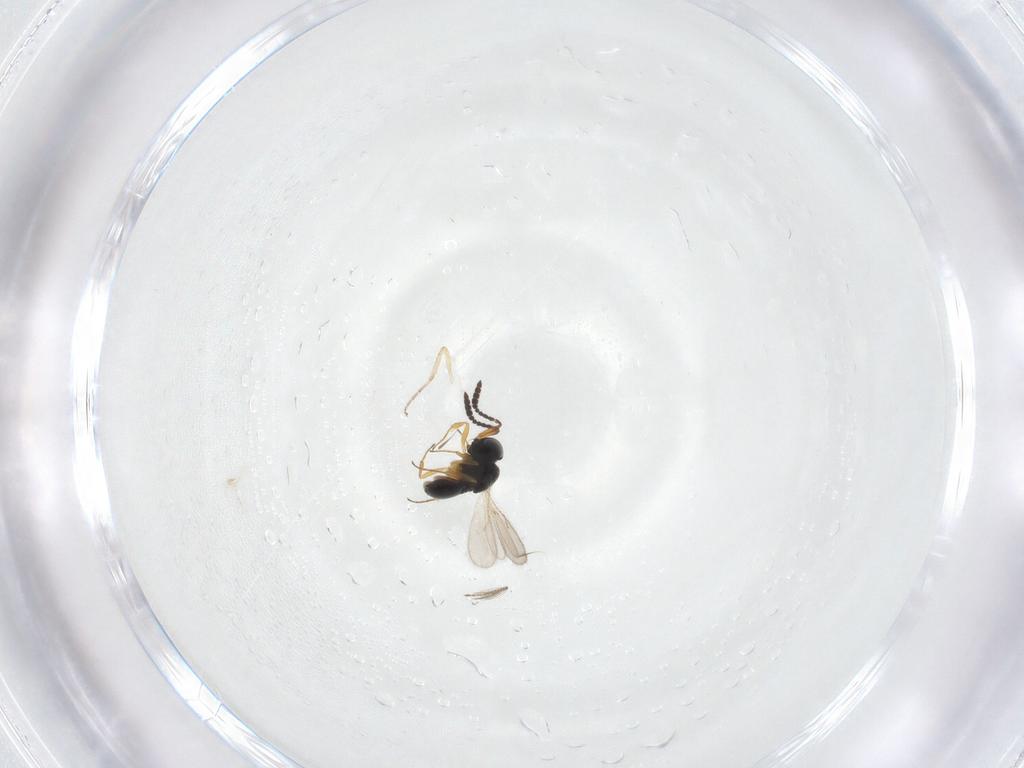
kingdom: Animalia
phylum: Arthropoda
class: Insecta
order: Hymenoptera
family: Scelionidae
